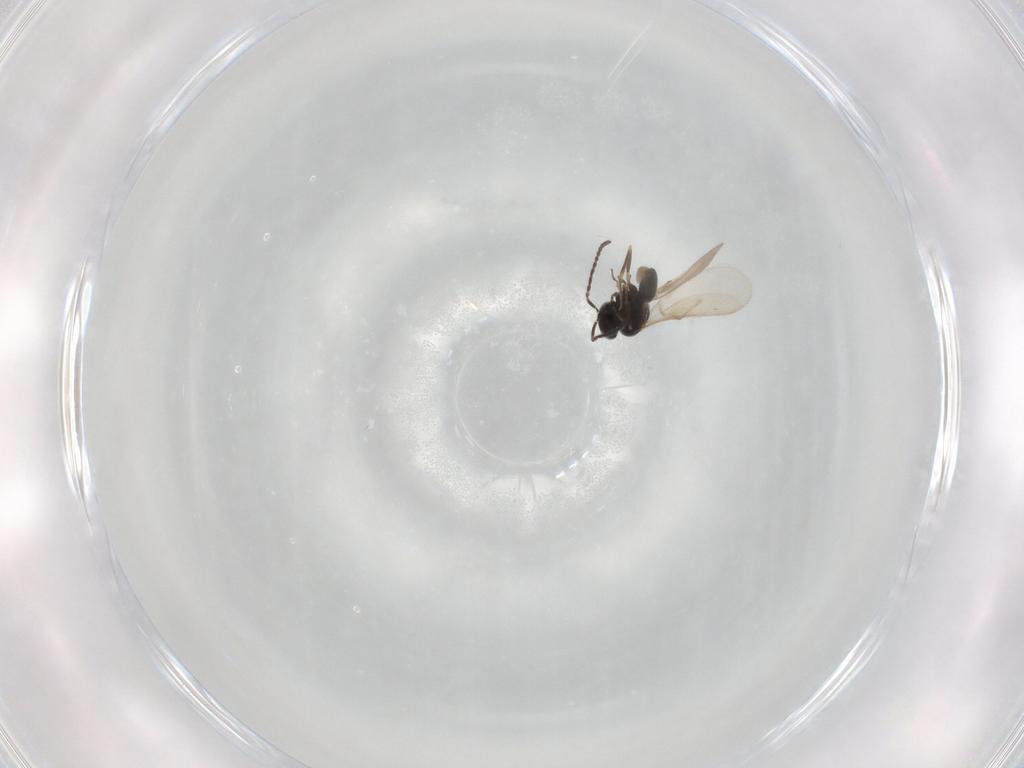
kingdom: Animalia
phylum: Arthropoda
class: Insecta
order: Hymenoptera
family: Scelionidae
